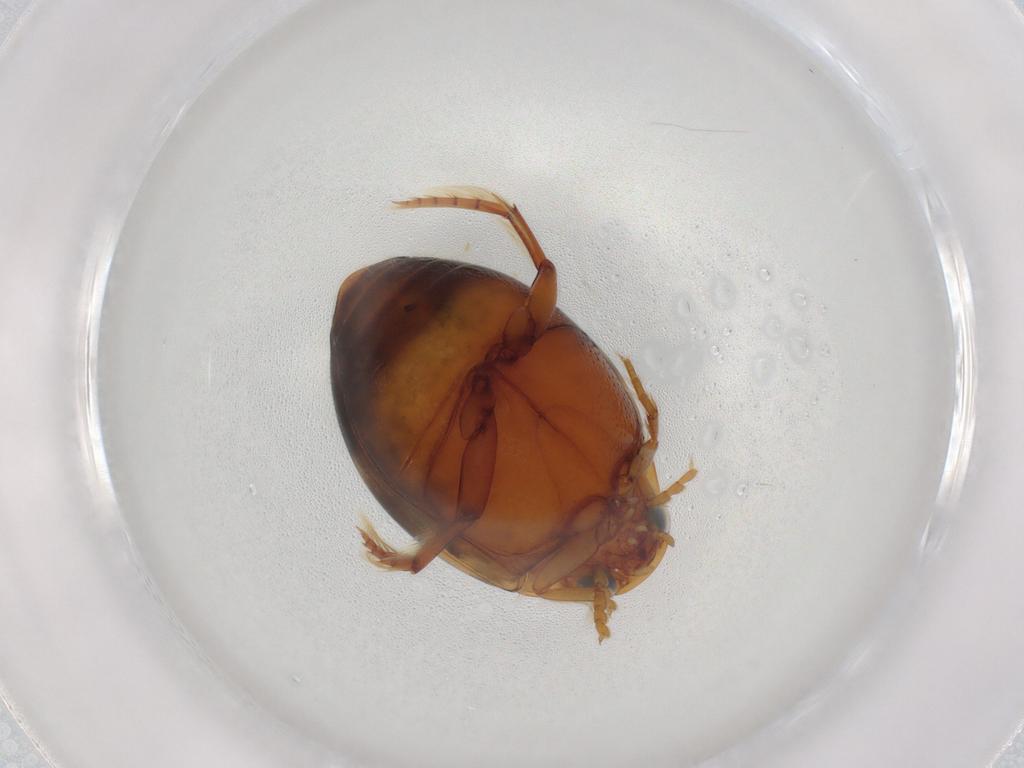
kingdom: Animalia
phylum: Arthropoda
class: Insecta
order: Coleoptera
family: Dytiscidae
